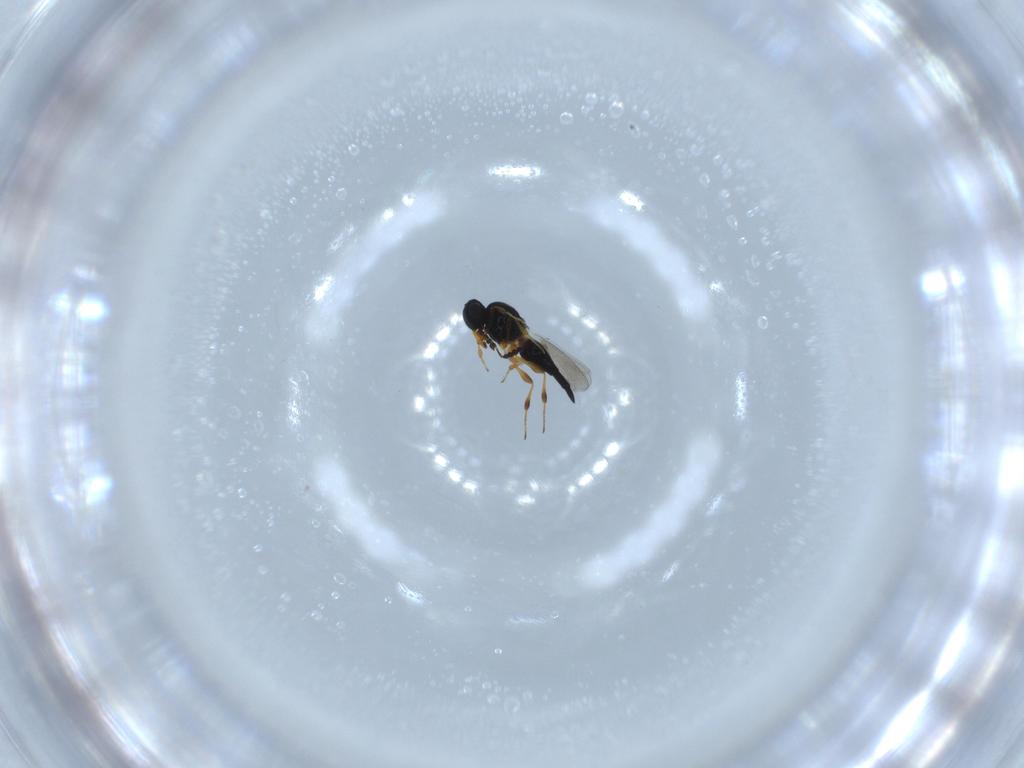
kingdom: Animalia
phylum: Arthropoda
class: Insecta
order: Hymenoptera
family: Platygastridae
